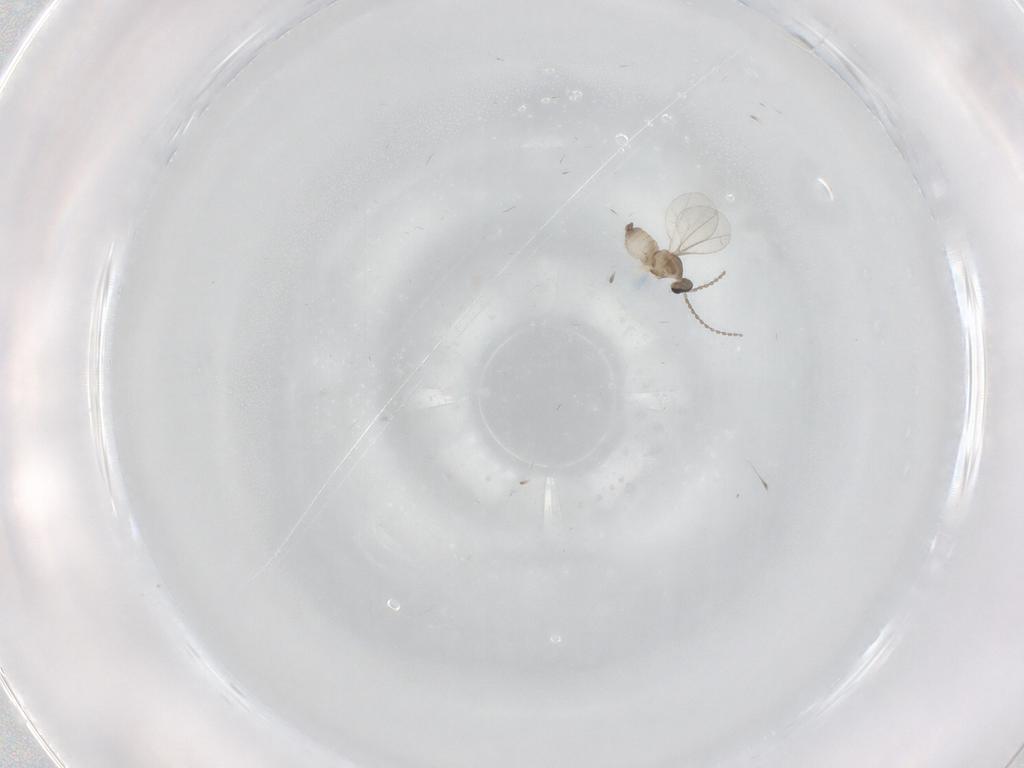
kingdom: Animalia
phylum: Arthropoda
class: Insecta
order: Diptera
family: Cecidomyiidae
